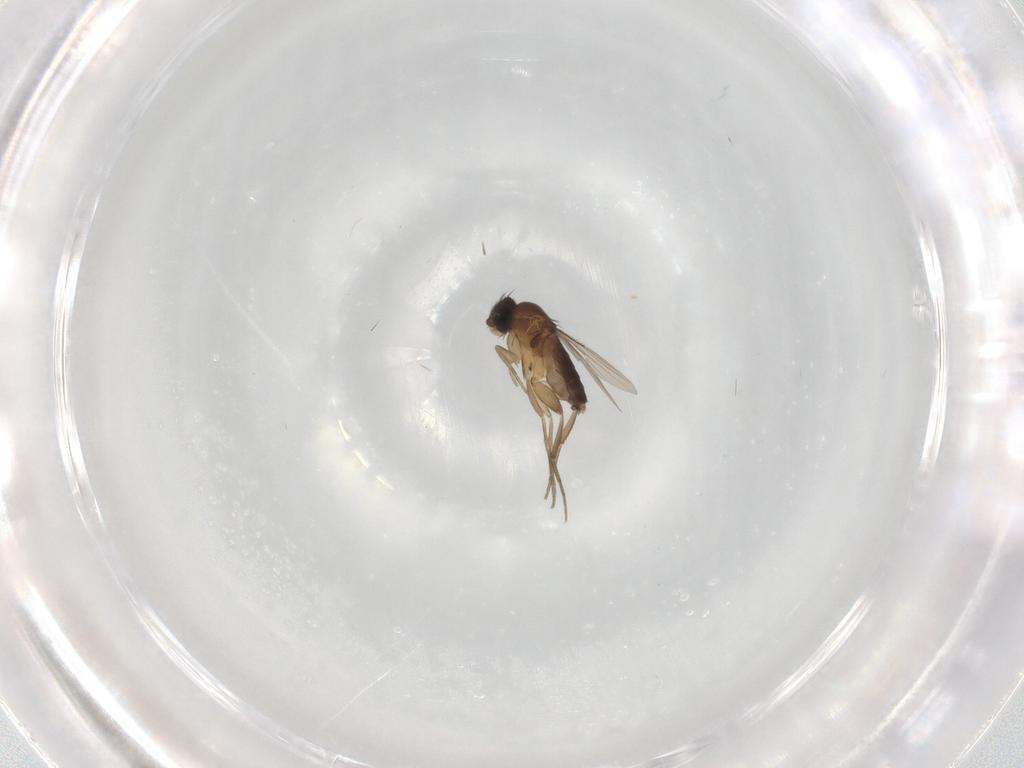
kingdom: Animalia
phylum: Arthropoda
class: Insecta
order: Diptera
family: Phoridae
